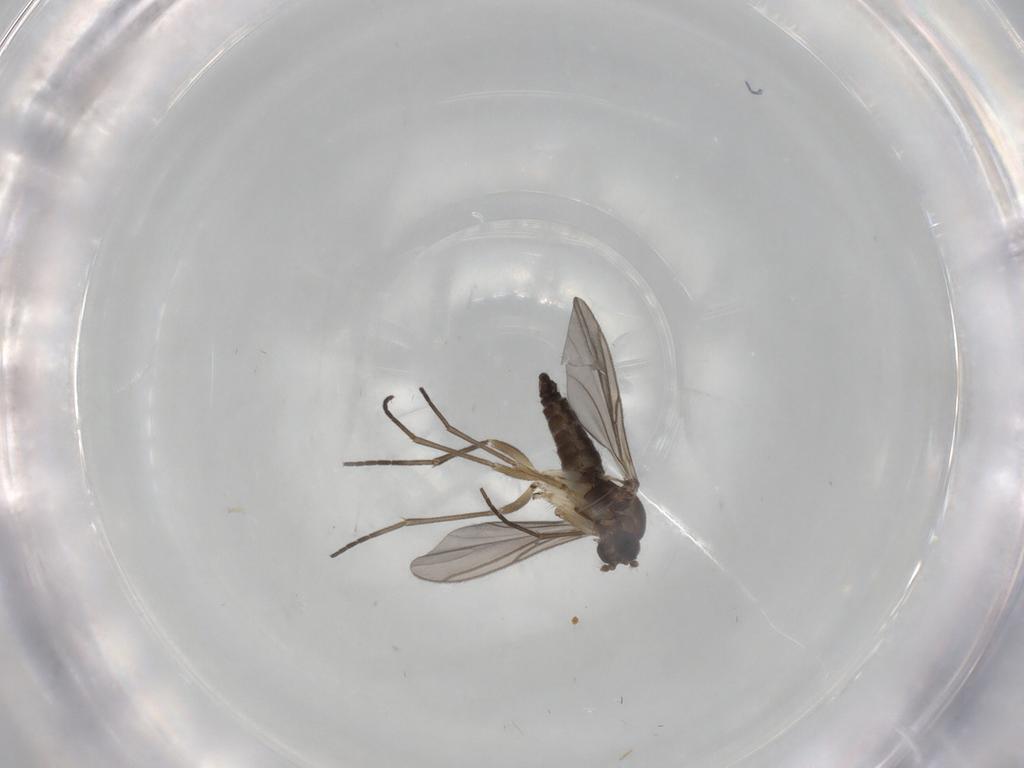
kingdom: Animalia
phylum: Arthropoda
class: Insecta
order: Diptera
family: Sciaridae
